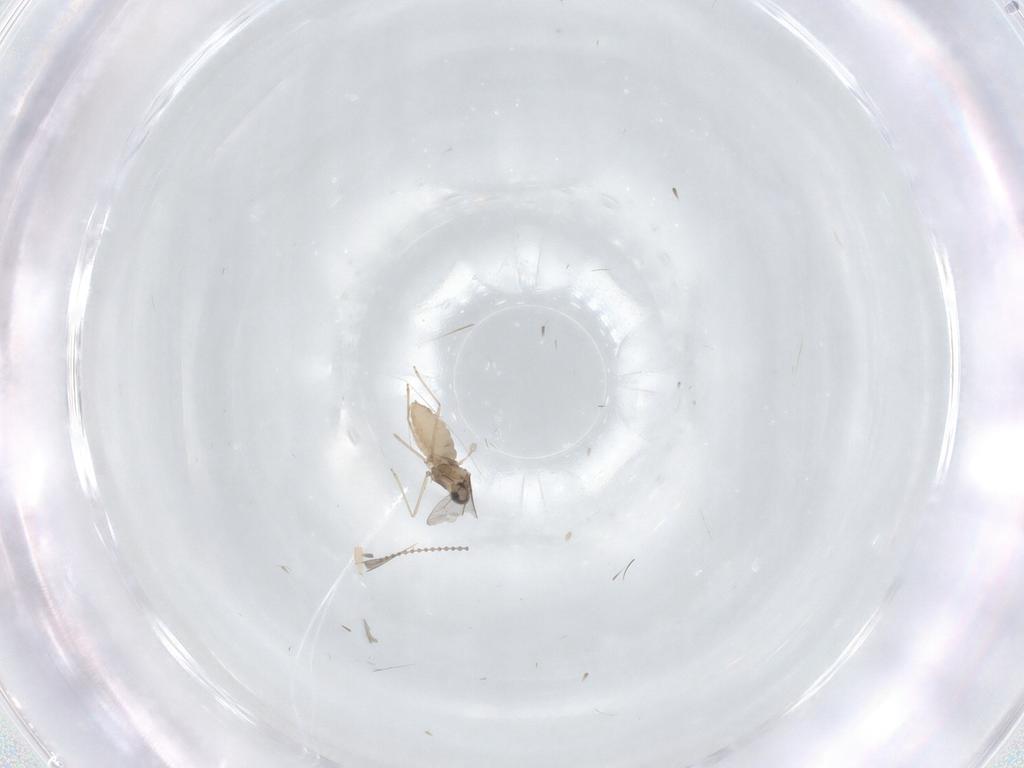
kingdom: Animalia
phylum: Arthropoda
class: Insecta
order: Diptera
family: Cecidomyiidae
